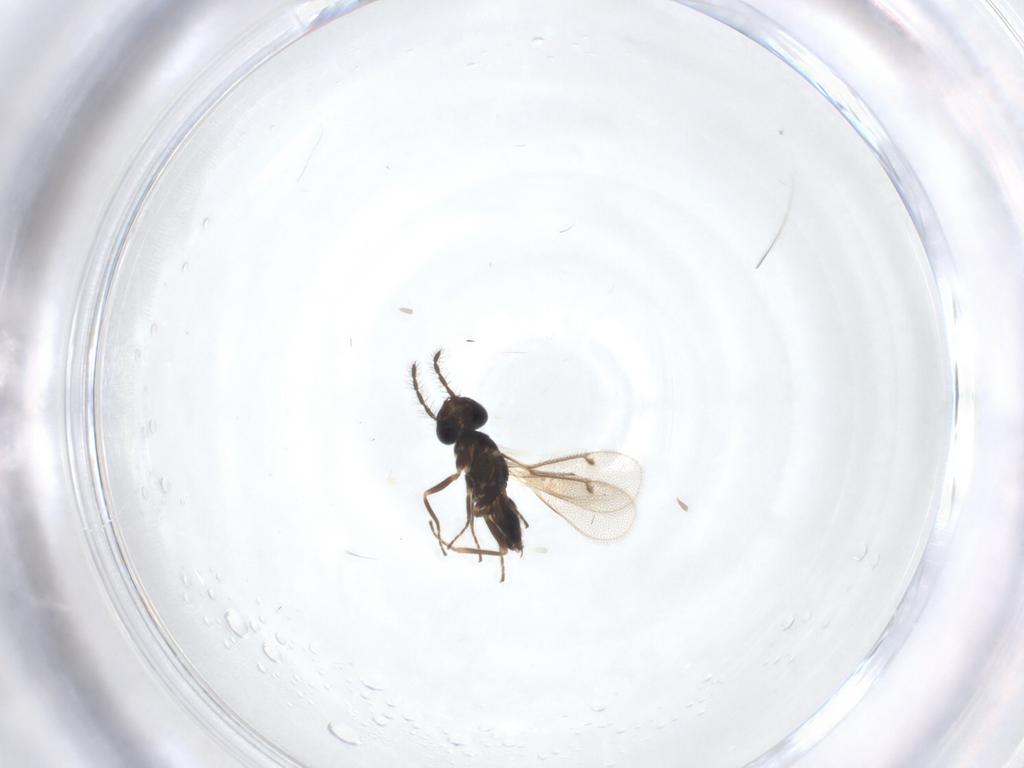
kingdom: Animalia
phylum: Arthropoda
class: Insecta
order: Hymenoptera
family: Eulophidae
